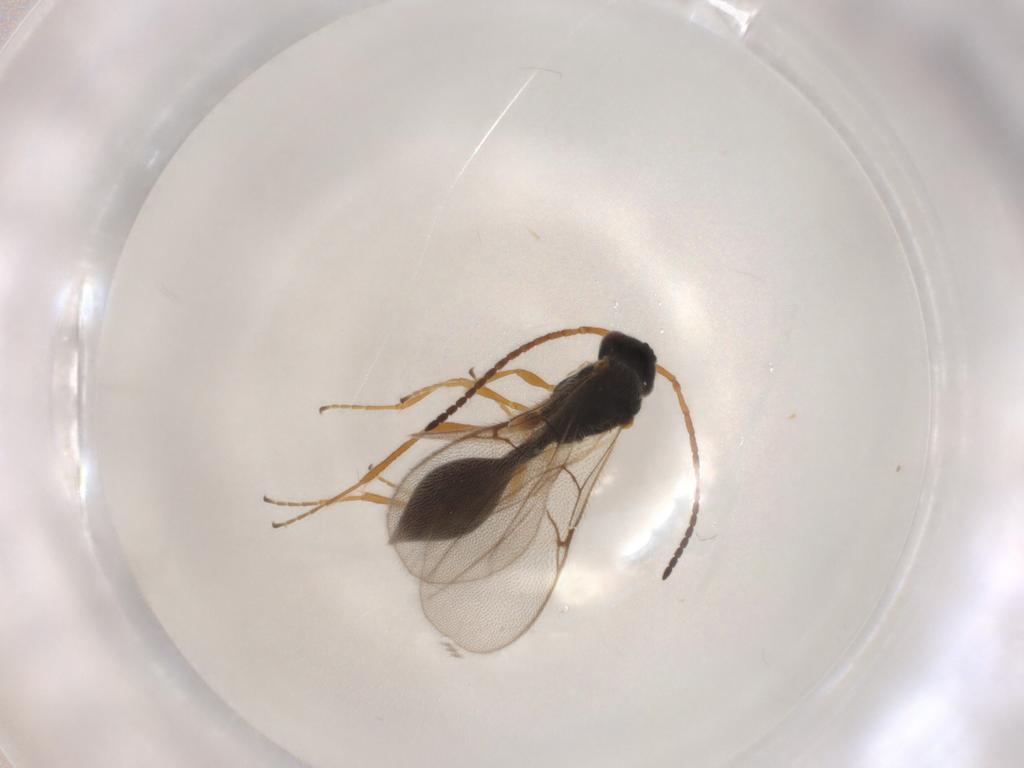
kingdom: Animalia
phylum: Arthropoda
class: Insecta
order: Hymenoptera
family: Diapriidae
